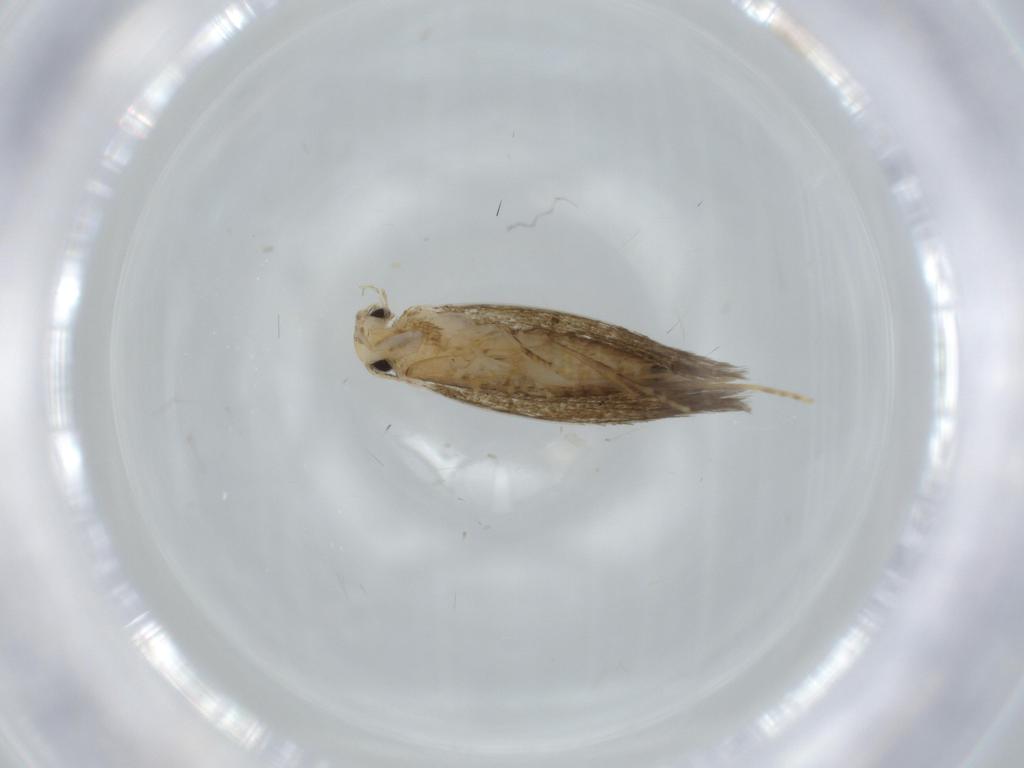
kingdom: Animalia
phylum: Arthropoda
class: Insecta
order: Lepidoptera
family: Tineidae
